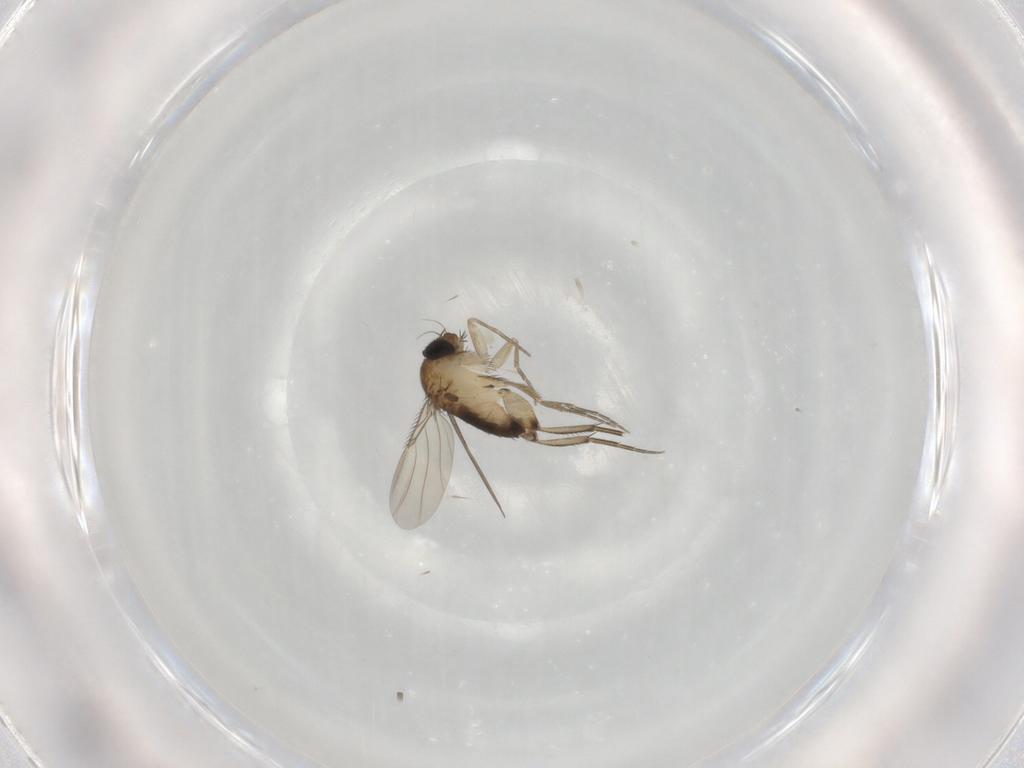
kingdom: Animalia
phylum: Arthropoda
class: Insecta
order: Diptera
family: Phoridae
